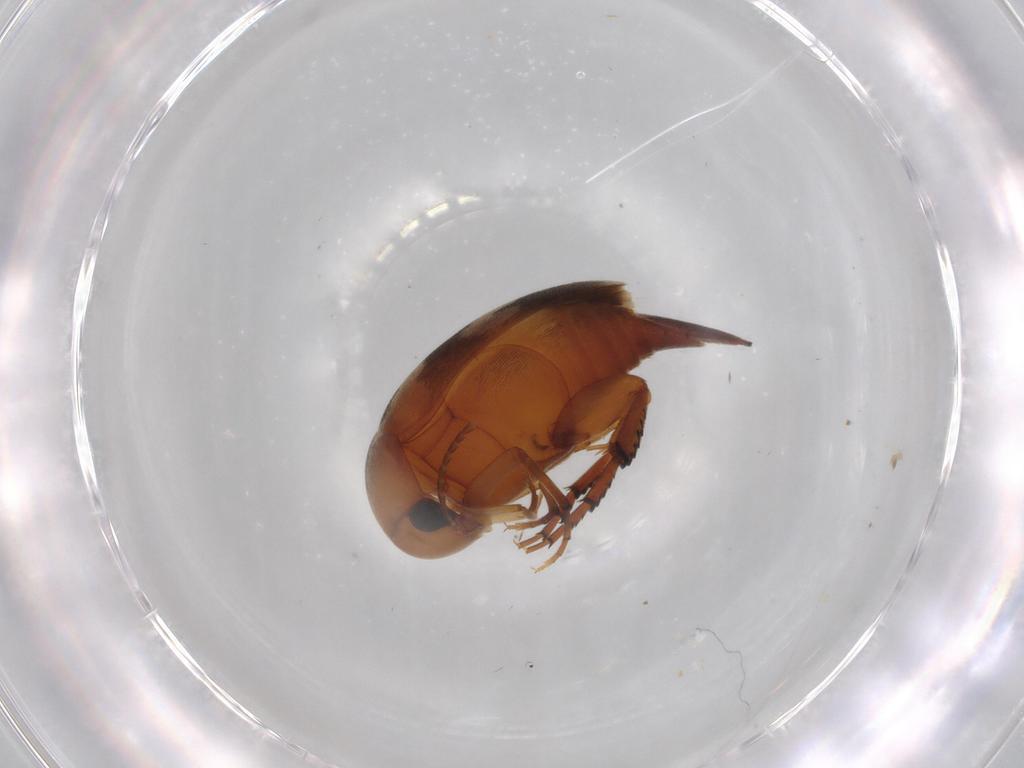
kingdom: Animalia
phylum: Arthropoda
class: Insecta
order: Coleoptera
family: Mordellidae
